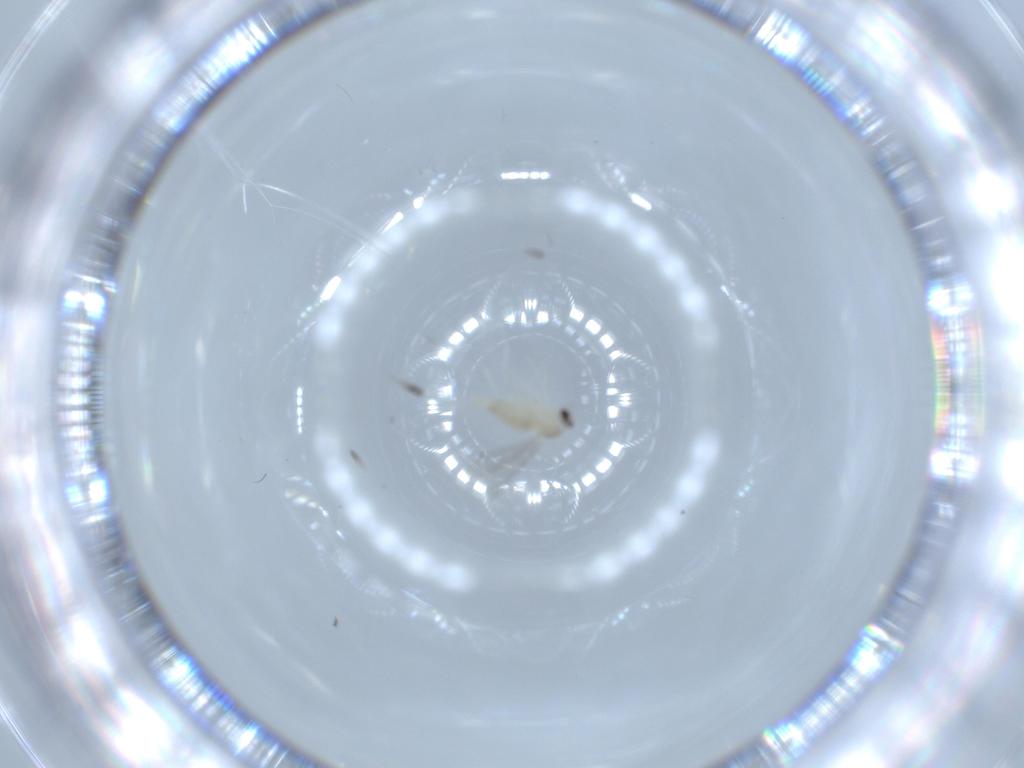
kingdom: Animalia
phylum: Arthropoda
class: Insecta
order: Diptera
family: Cecidomyiidae
